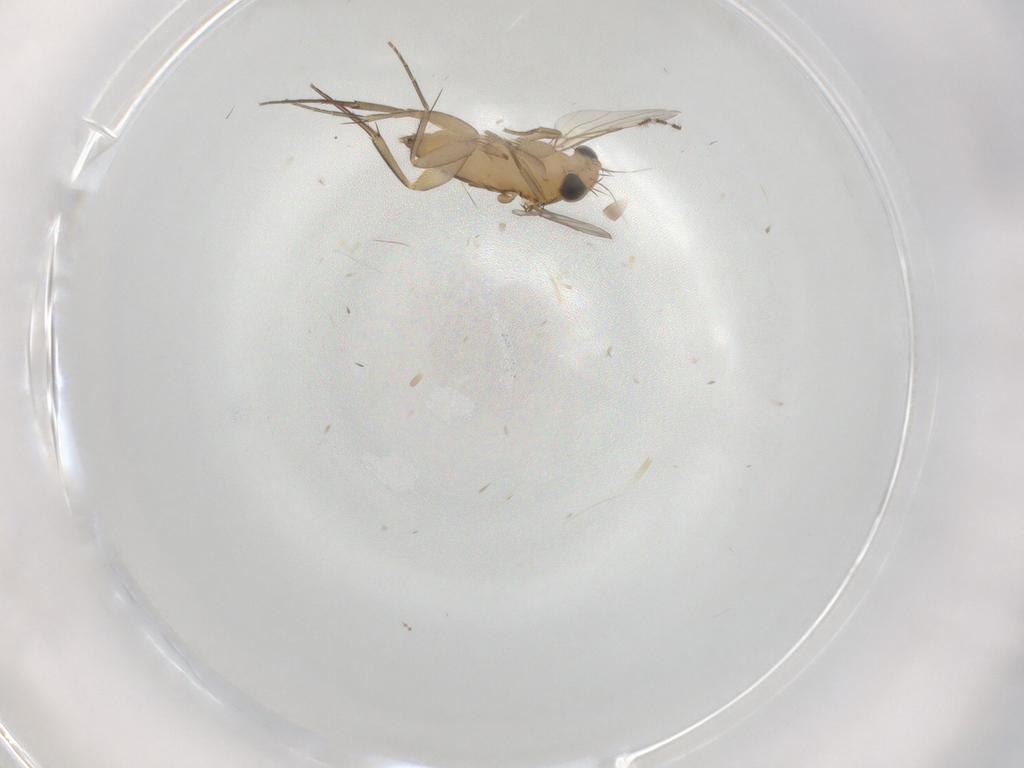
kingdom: Animalia
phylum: Arthropoda
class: Insecta
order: Diptera
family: Phoridae
